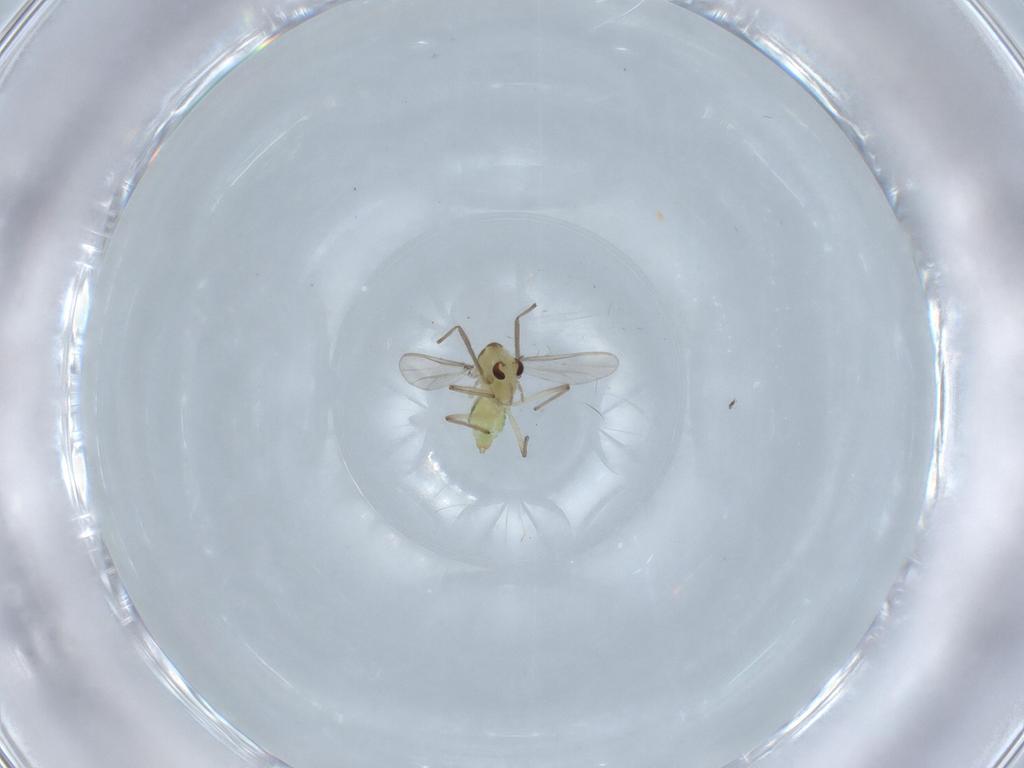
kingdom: Animalia
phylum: Arthropoda
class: Insecta
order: Diptera
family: Chironomidae
